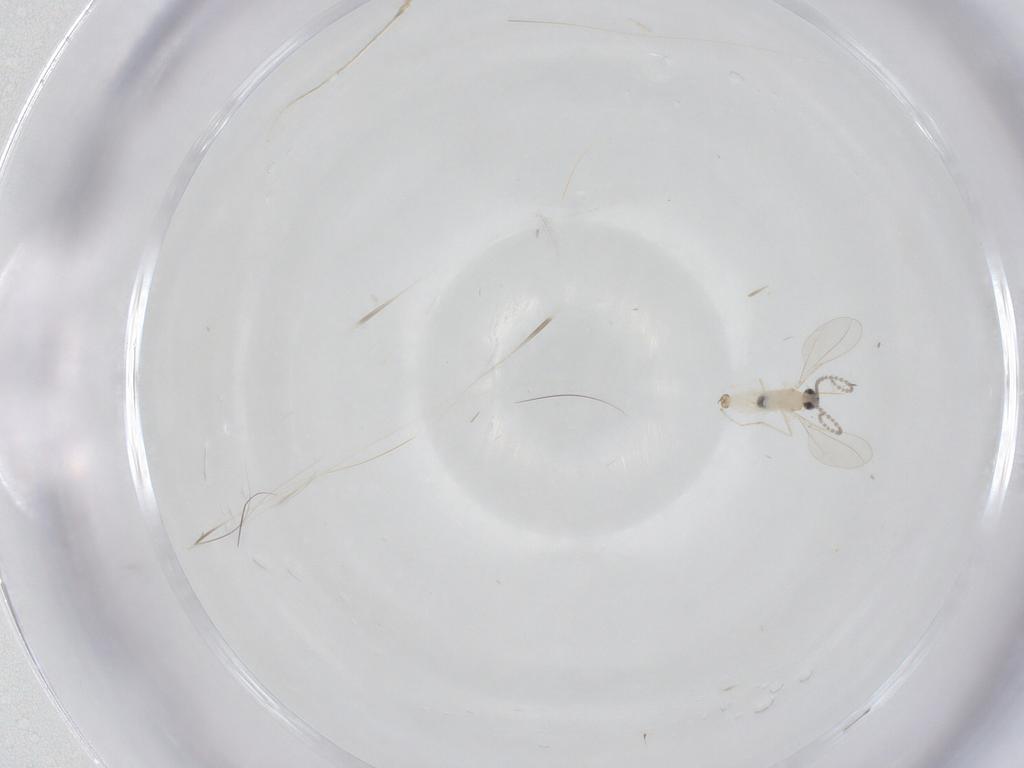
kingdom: Animalia
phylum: Arthropoda
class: Insecta
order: Diptera
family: Cecidomyiidae
